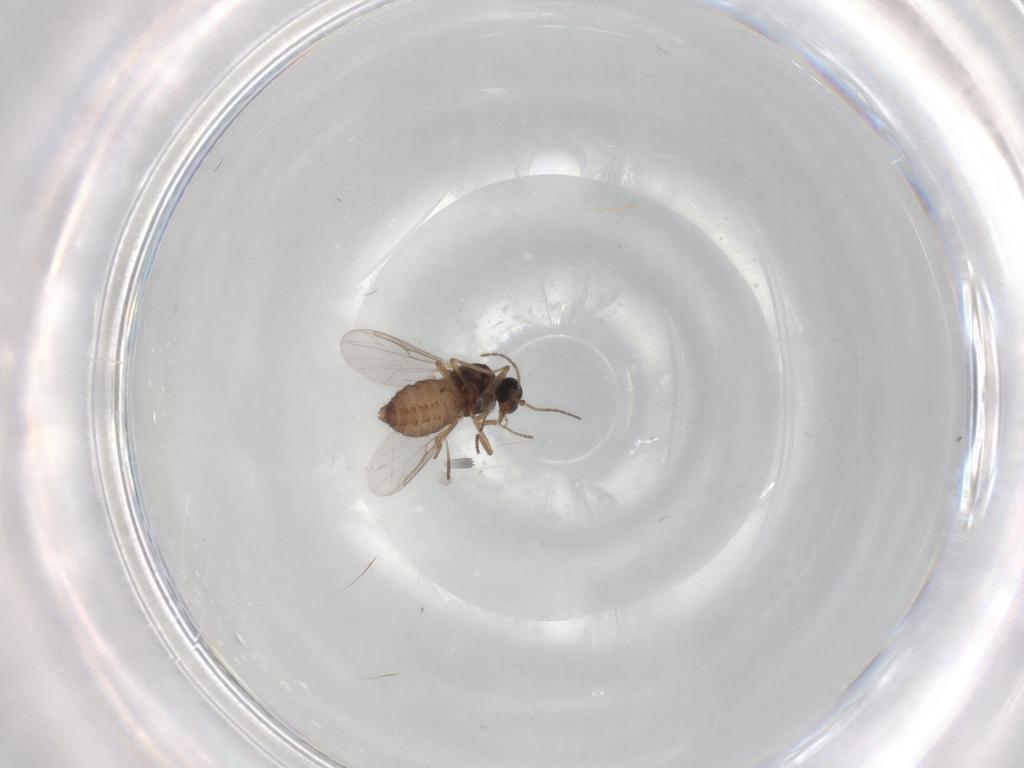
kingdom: Animalia
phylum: Arthropoda
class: Insecta
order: Diptera
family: Ceratopogonidae
